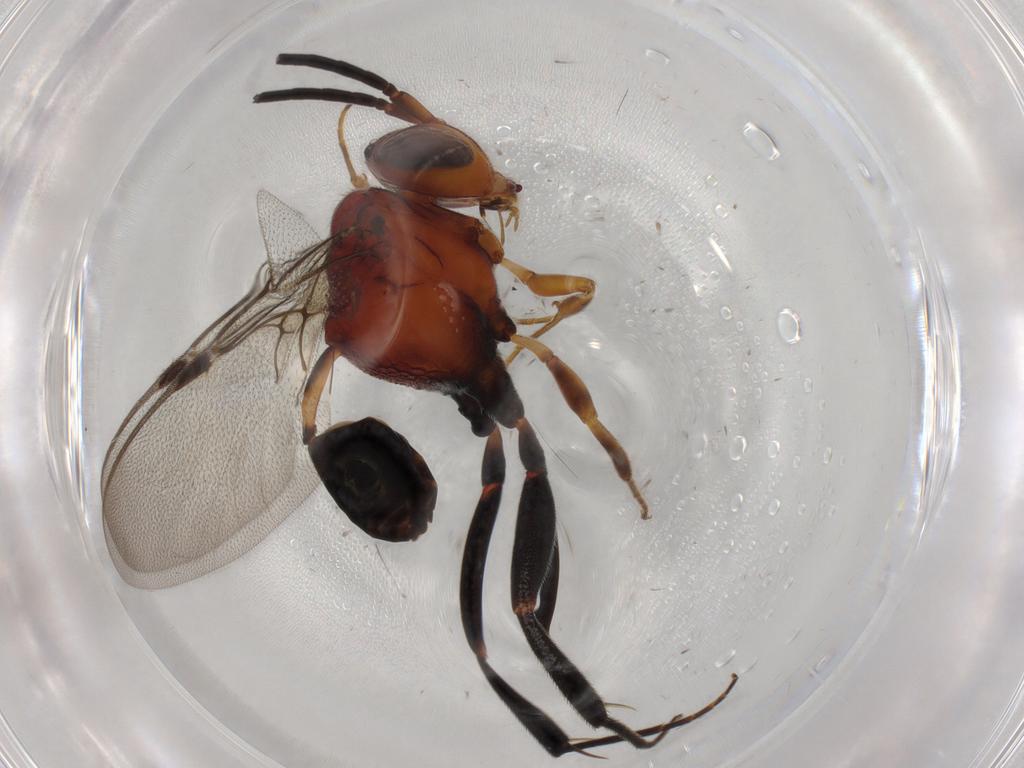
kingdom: Animalia
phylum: Arthropoda
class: Insecta
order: Hymenoptera
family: Evaniidae
